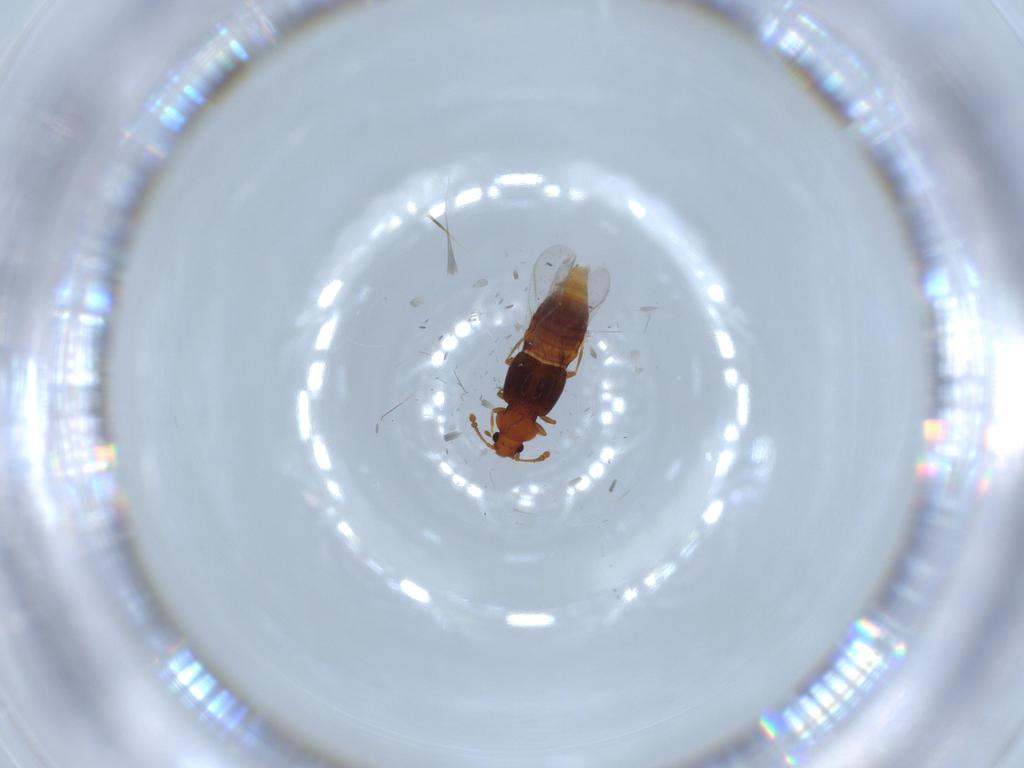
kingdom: Animalia
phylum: Arthropoda
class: Insecta
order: Coleoptera
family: Staphylinidae
